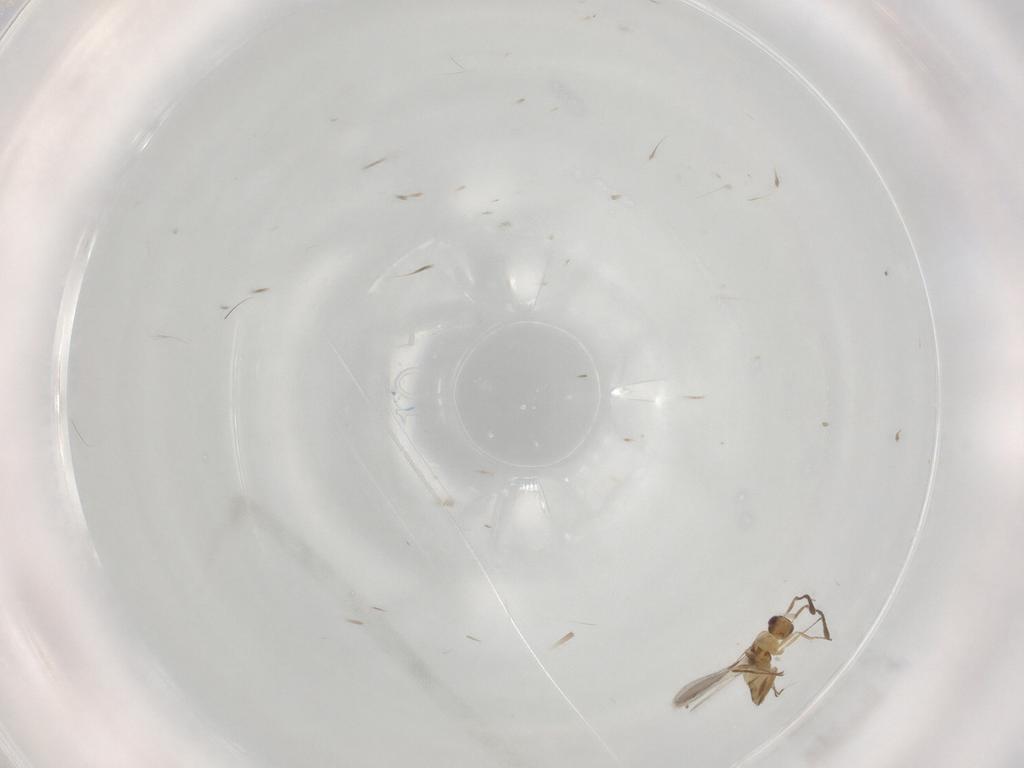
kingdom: Animalia
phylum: Arthropoda
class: Insecta
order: Hymenoptera
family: Mymaridae
